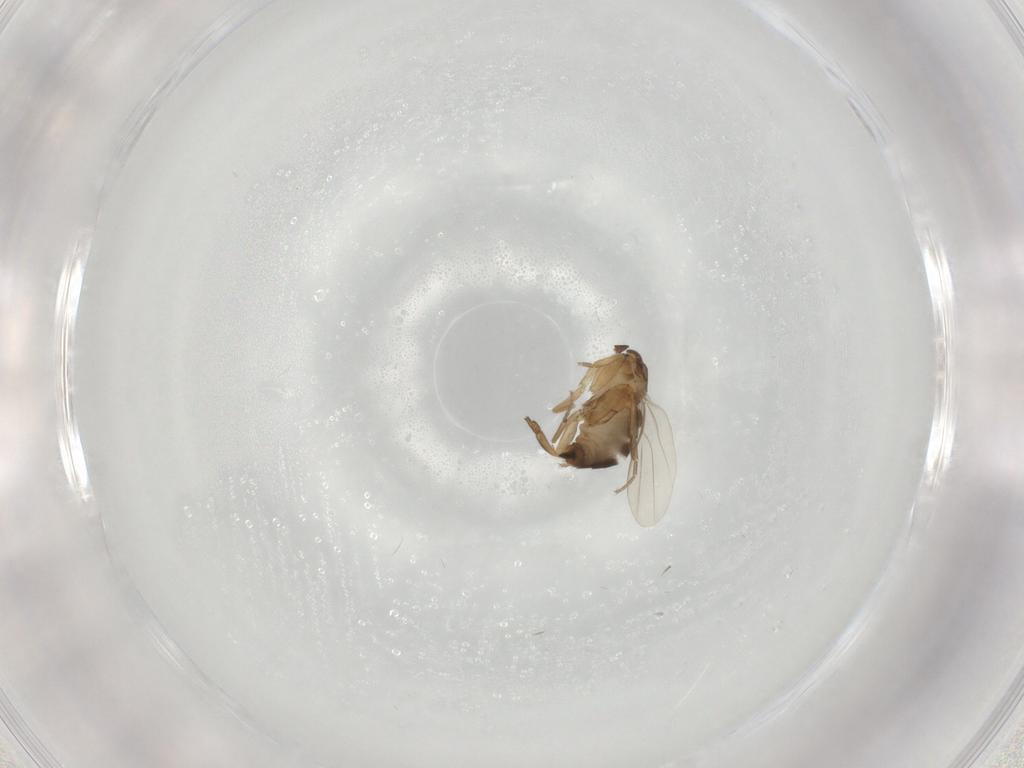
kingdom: Animalia
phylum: Arthropoda
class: Insecta
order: Diptera
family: Phoridae
